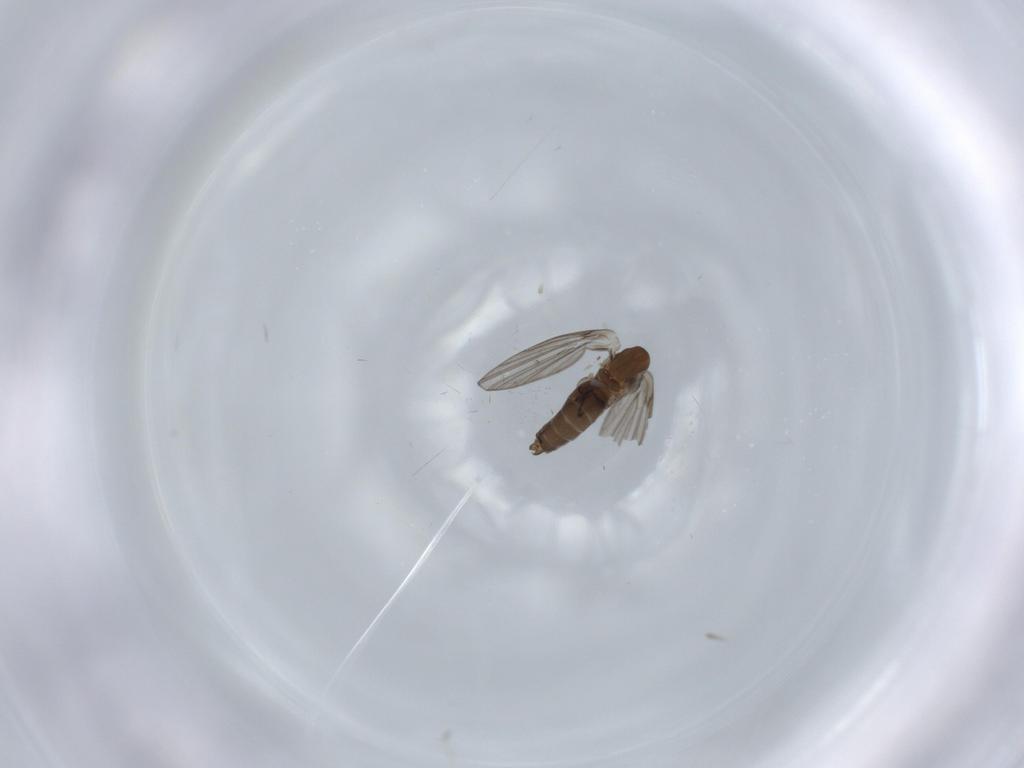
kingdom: Animalia
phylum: Arthropoda
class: Insecta
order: Diptera
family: Psychodidae
